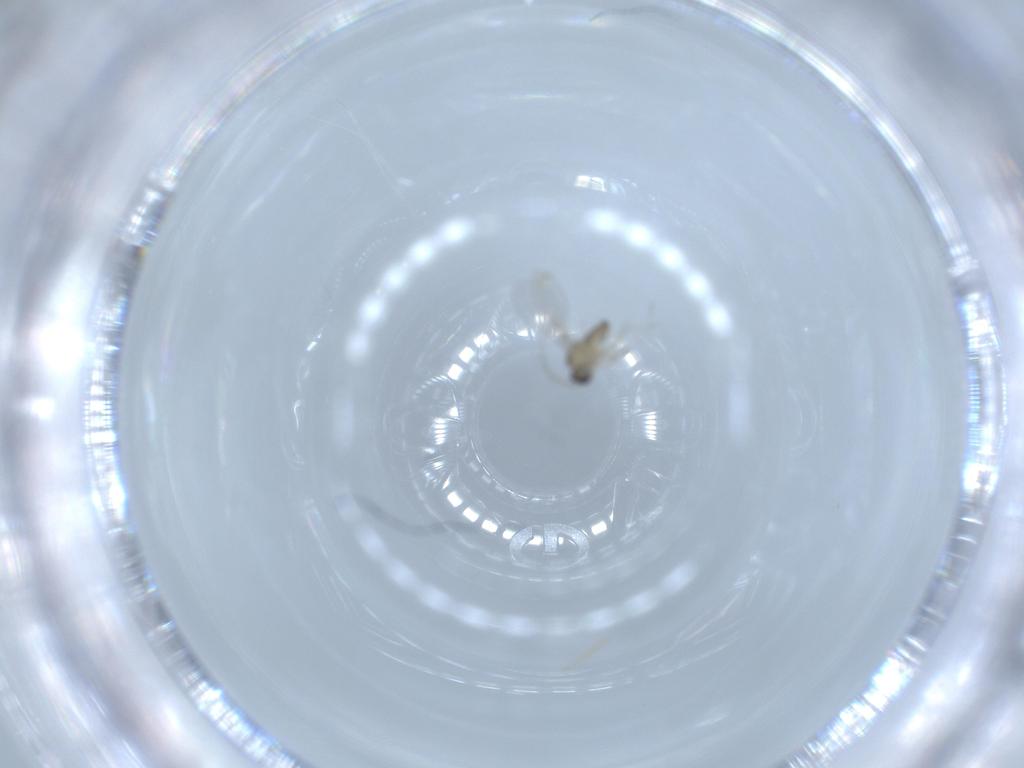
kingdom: Animalia
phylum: Arthropoda
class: Insecta
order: Diptera
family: Cecidomyiidae
